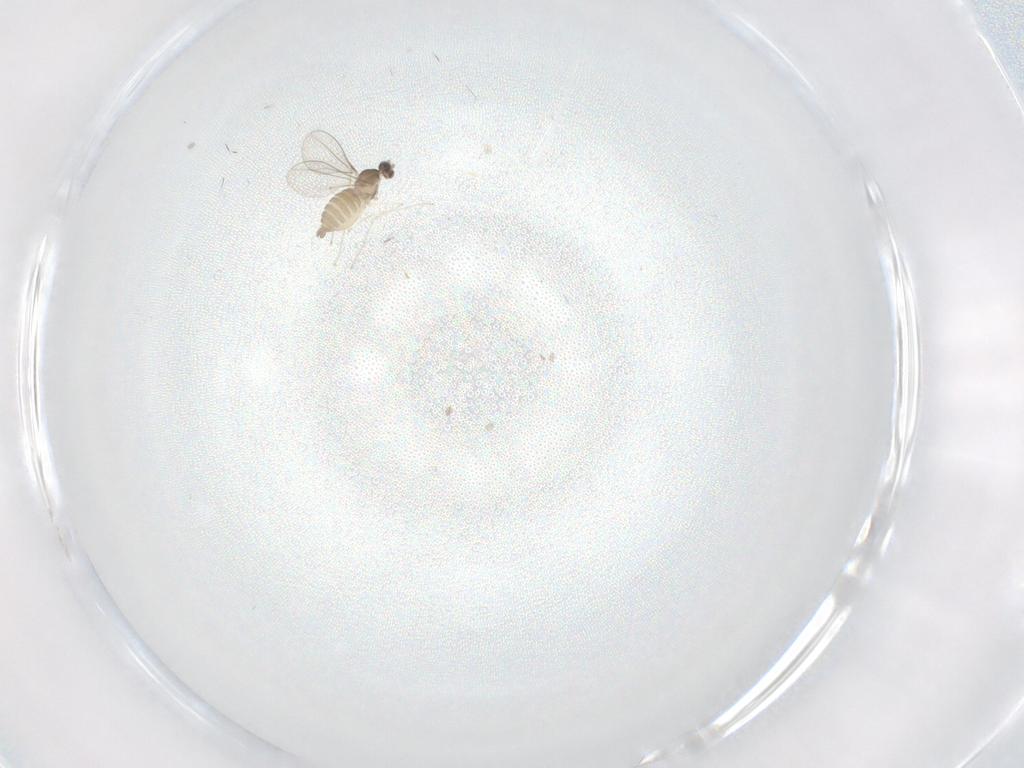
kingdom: Animalia
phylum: Arthropoda
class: Insecta
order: Diptera
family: Cecidomyiidae
